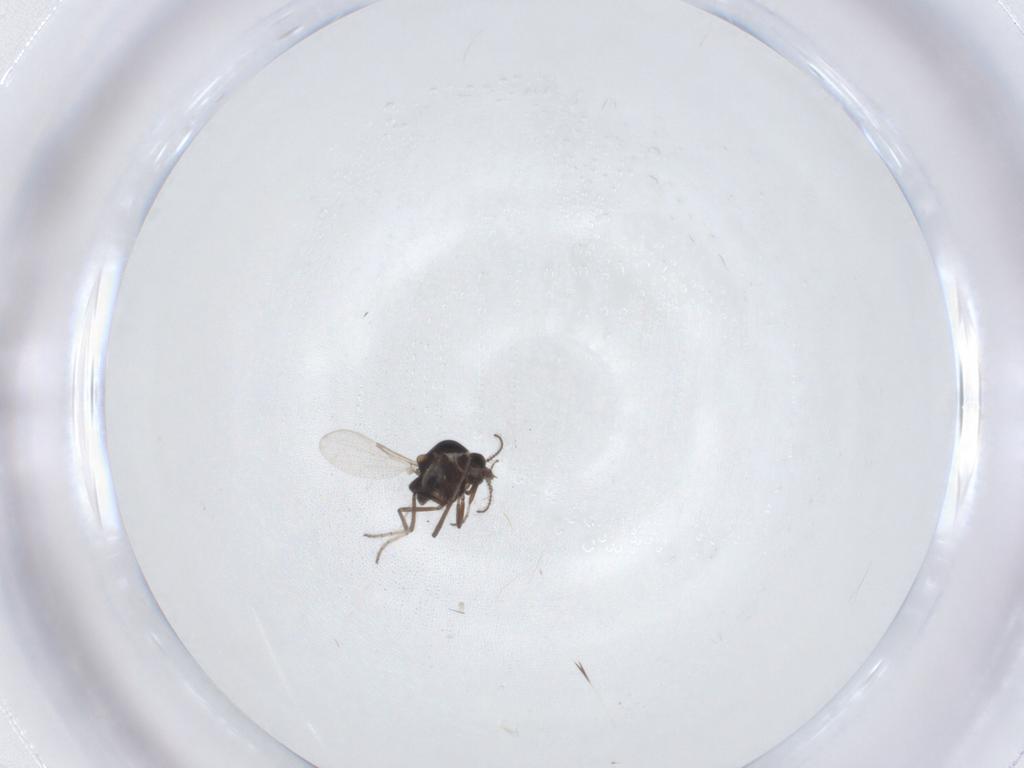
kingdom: Animalia
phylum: Arthropoda
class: Insecta
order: Diptera
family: Ceratopogonidae
